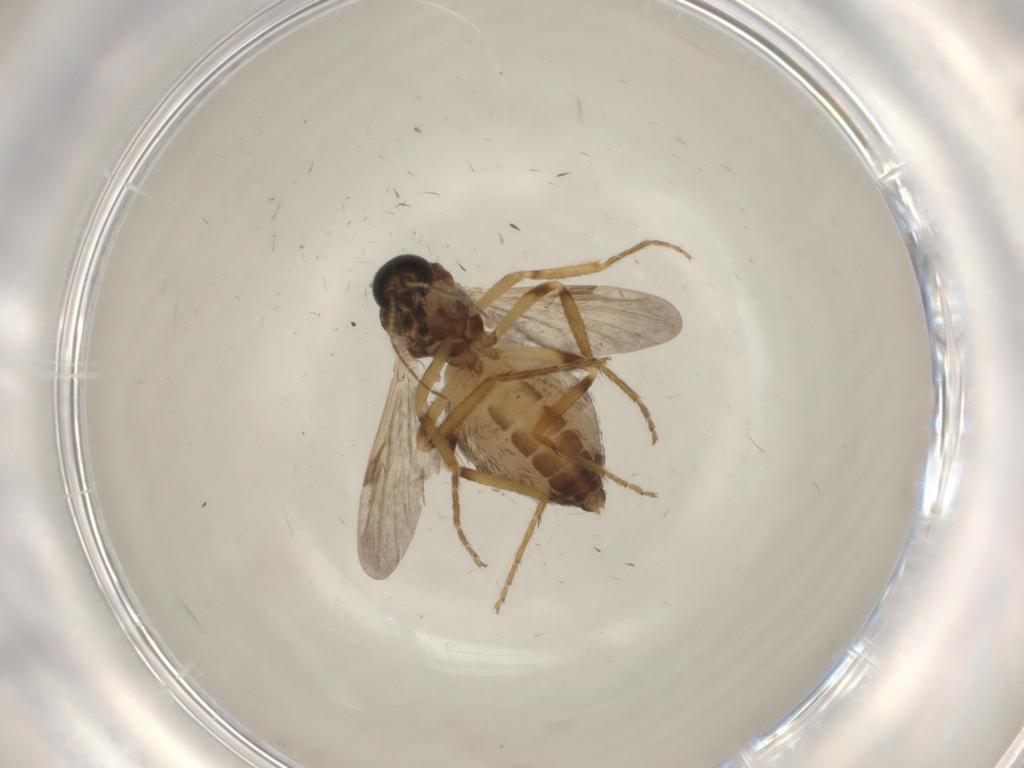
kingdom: Animalia
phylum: Arthropoda
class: Insecta
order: Diptera
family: Ceratopogonidae
